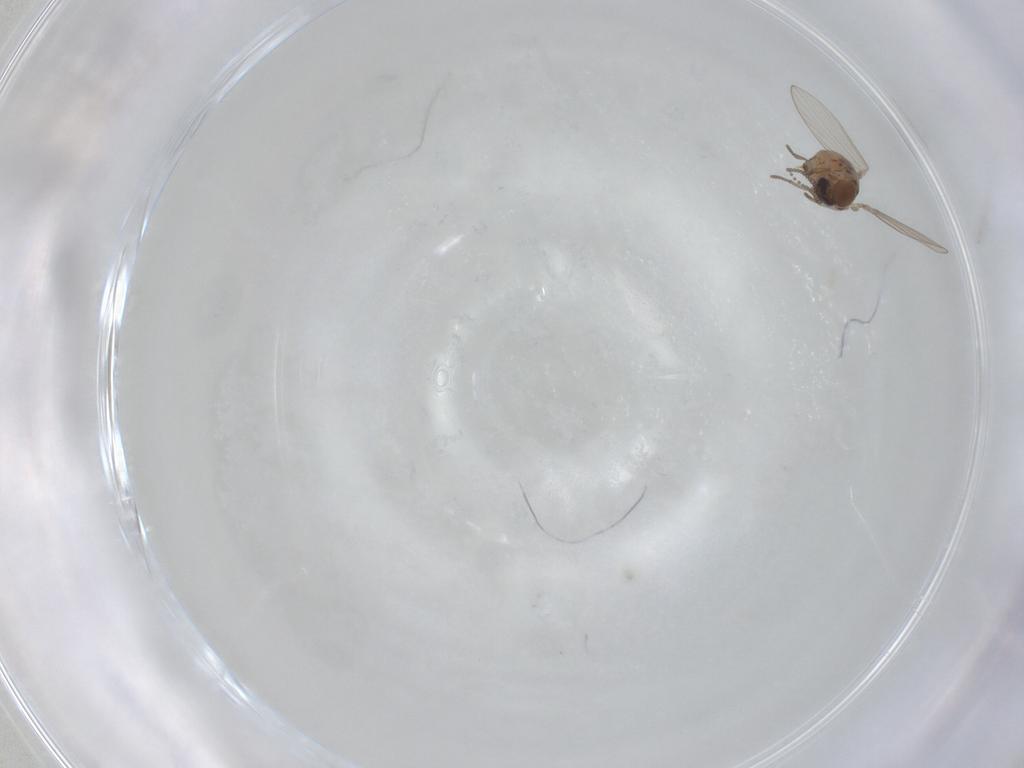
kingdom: Animalia
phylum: Arthropoda
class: Insecta
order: Diptera
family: Psychodidae
